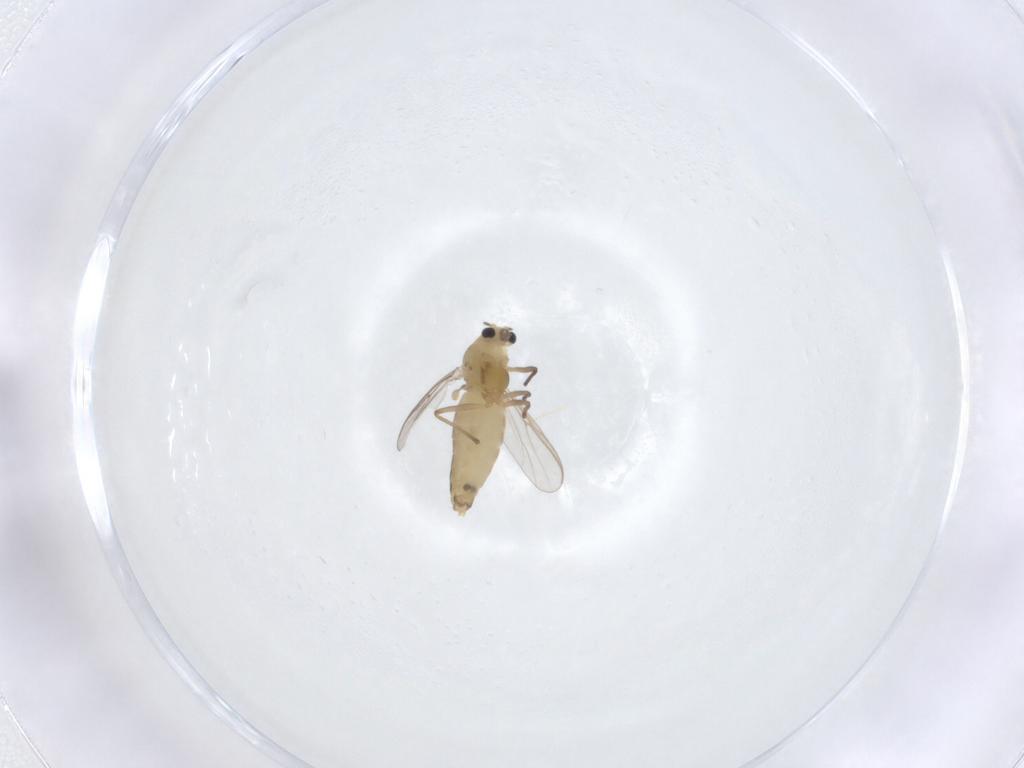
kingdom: Animalia
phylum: Arthropoda
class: Insecta
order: Diptera
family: Chironomidae
